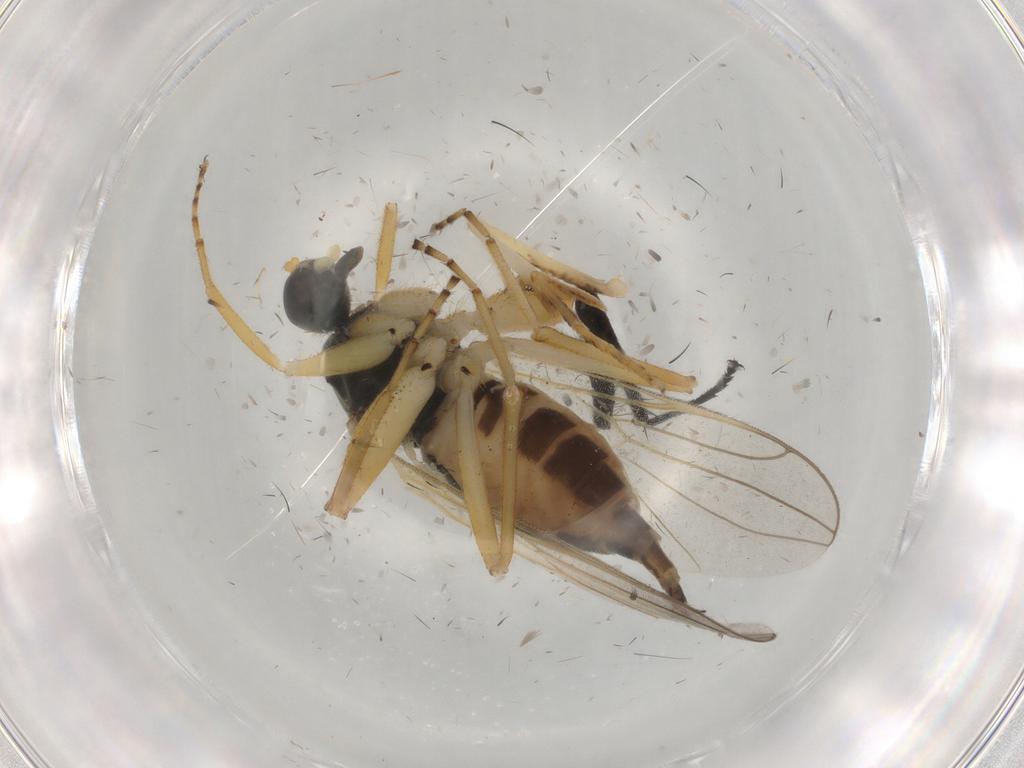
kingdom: Animalia
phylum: Arthropoda
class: Insecta
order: Diptera
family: Hybotidae
